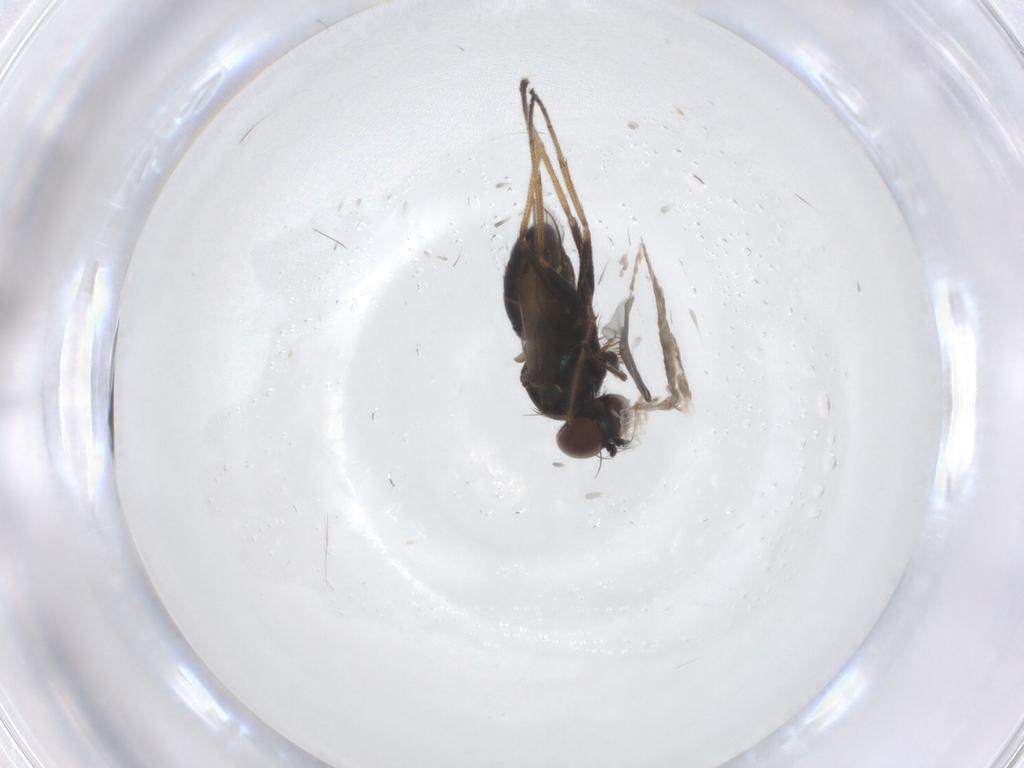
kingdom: Animalia
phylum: Arthropoda
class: Insecta
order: Diptera
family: Dolichopodidae
